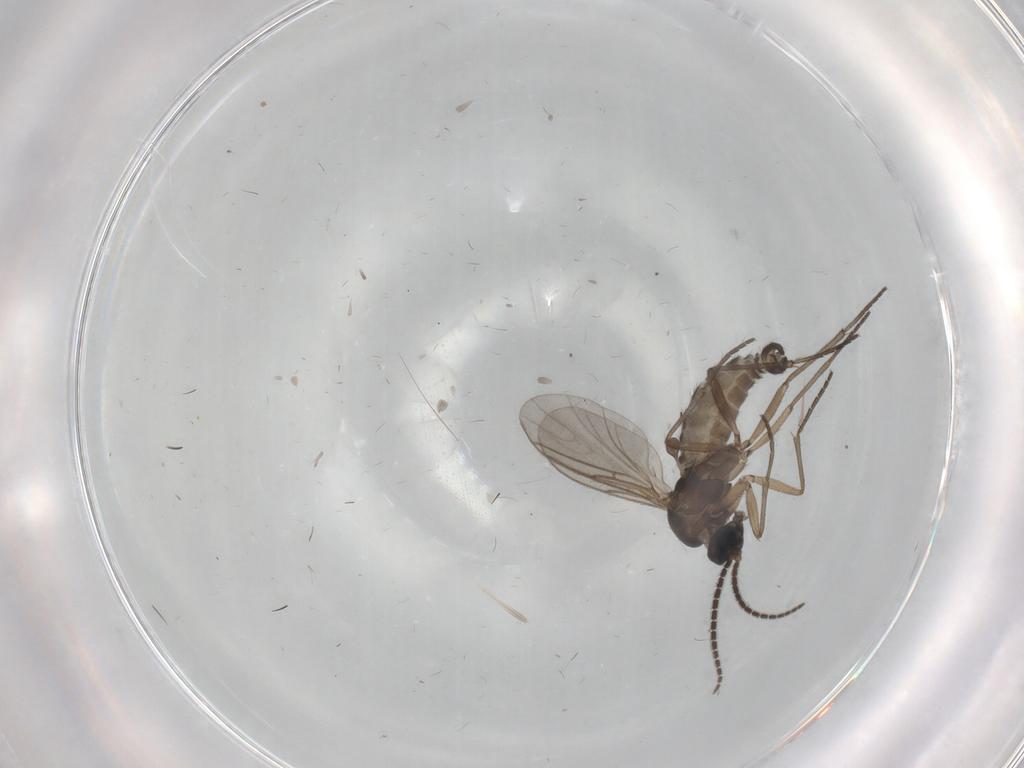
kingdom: Animalia
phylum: Arthropoda
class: Insecta
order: Diptera
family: Sciaridae
